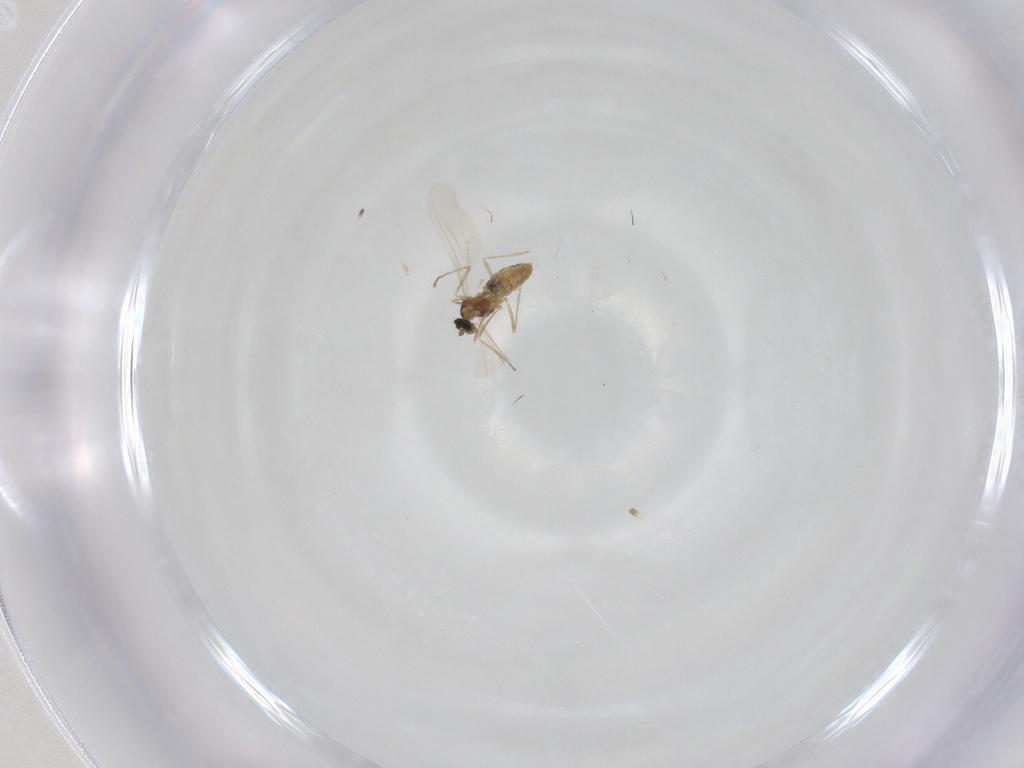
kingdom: Animalia
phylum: Arthropoda
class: Insecta
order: Diptera
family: Cecidomyiidae
